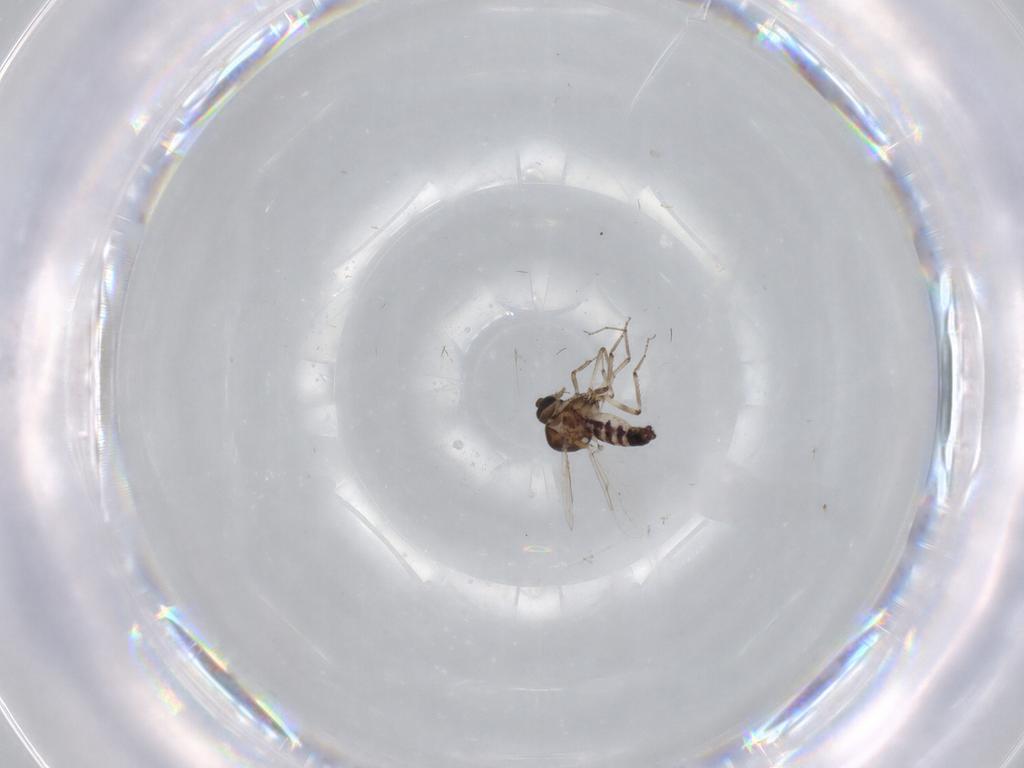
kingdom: Animalia
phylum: Arthropoda
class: Insecta
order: Diptera
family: Ceratopogonidae
